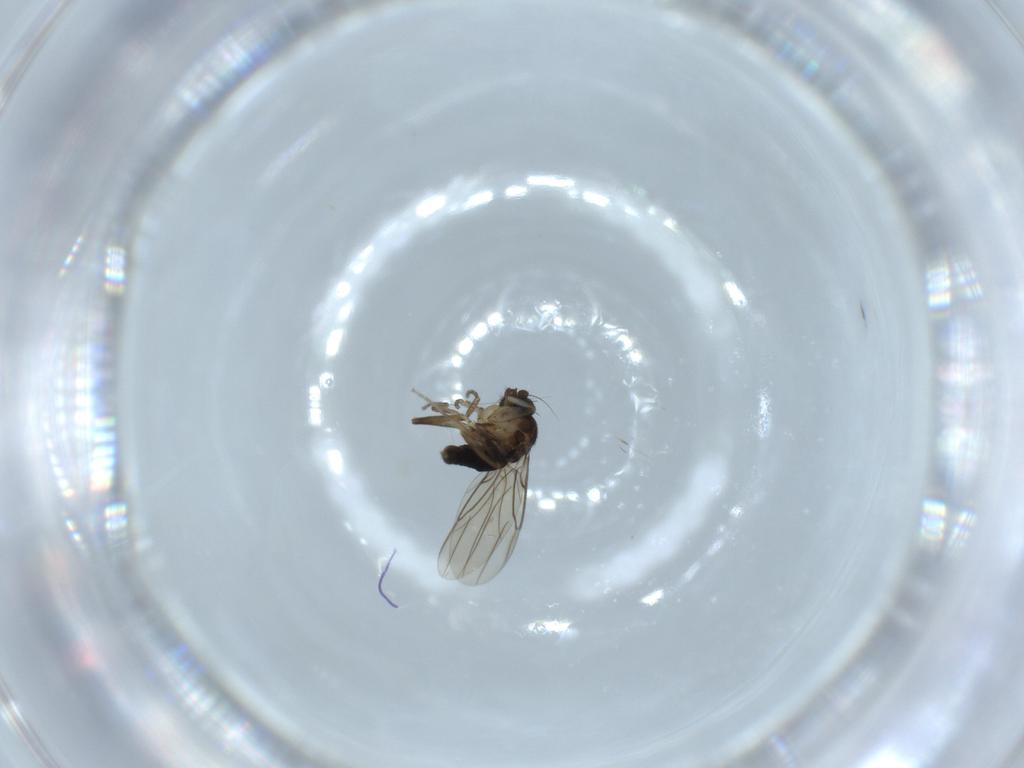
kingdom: Animalia
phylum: Arthropoda
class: Insecta
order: Diptera
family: Phoridae
